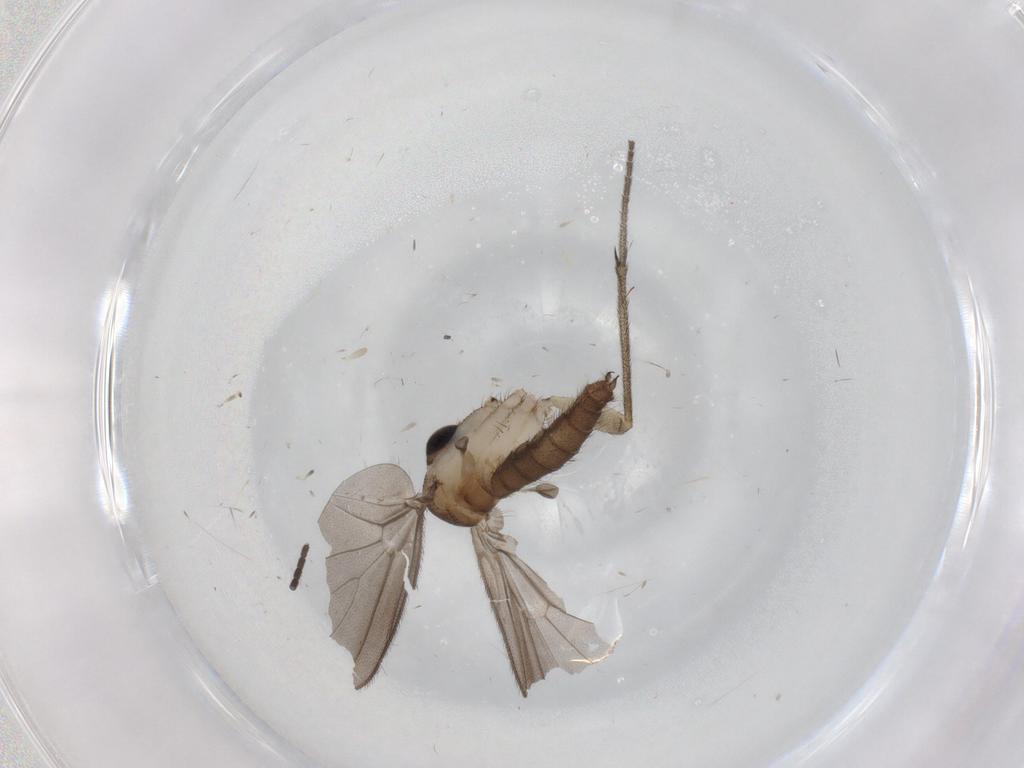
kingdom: Animalia
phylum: Arthropoda
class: Insecta
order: Diptera
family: Diadocidiidae
